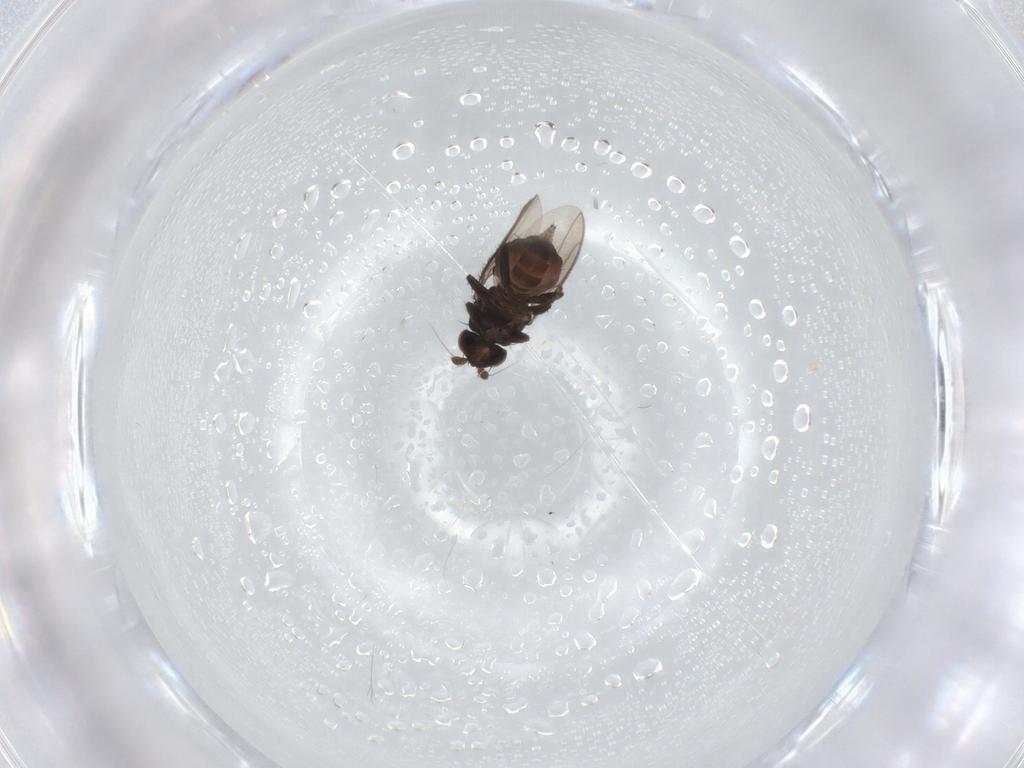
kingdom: Animalia
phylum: Arthropoda
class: Insecta
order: Diptera
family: Sphaeroceridae
